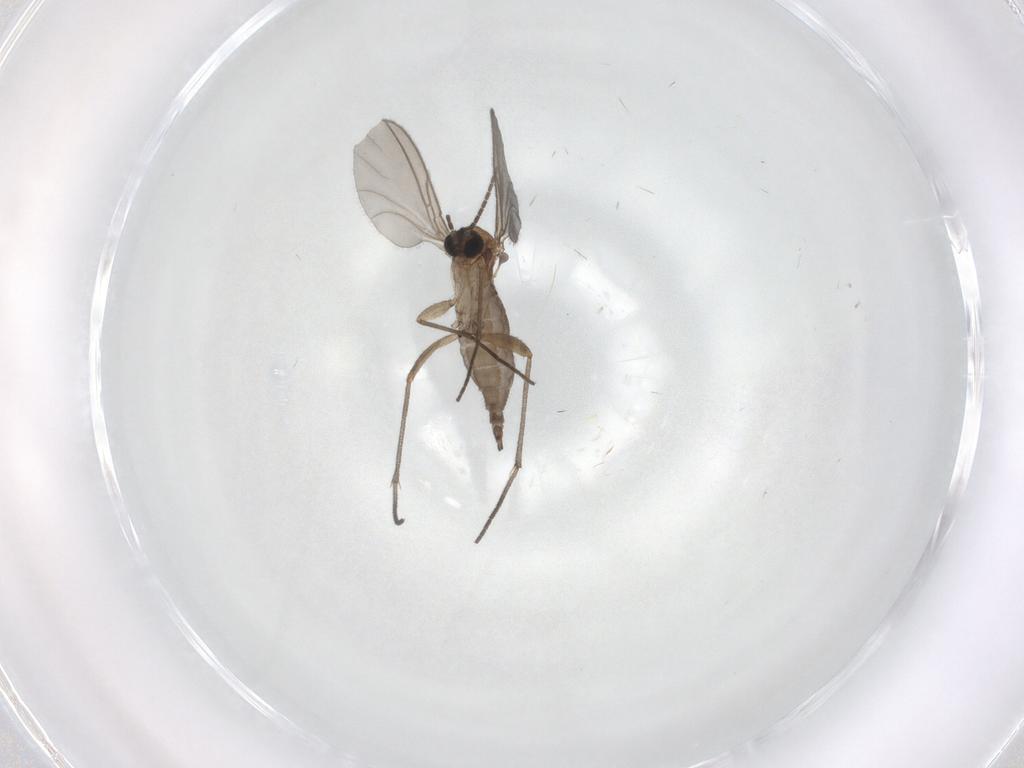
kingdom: Animalia
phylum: Arthropoda
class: Insecta
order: Diptera
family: Sciaridae
